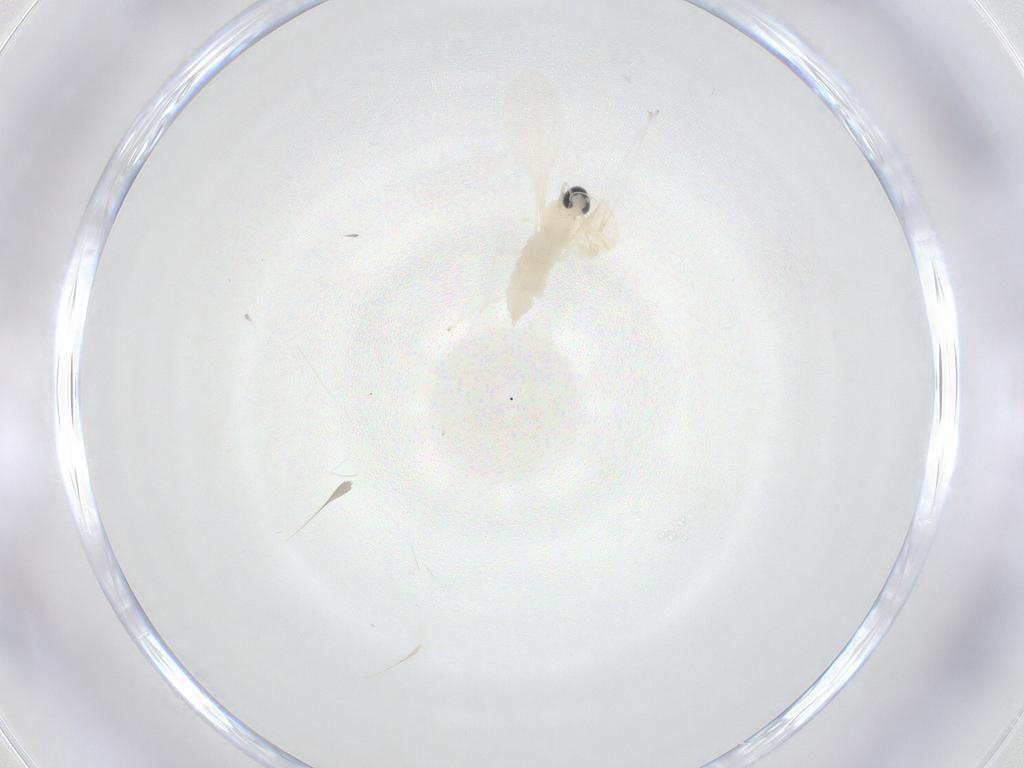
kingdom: Animalia
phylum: Arthropoda
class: Insecta
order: Diptera
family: Cecidomyiidae
